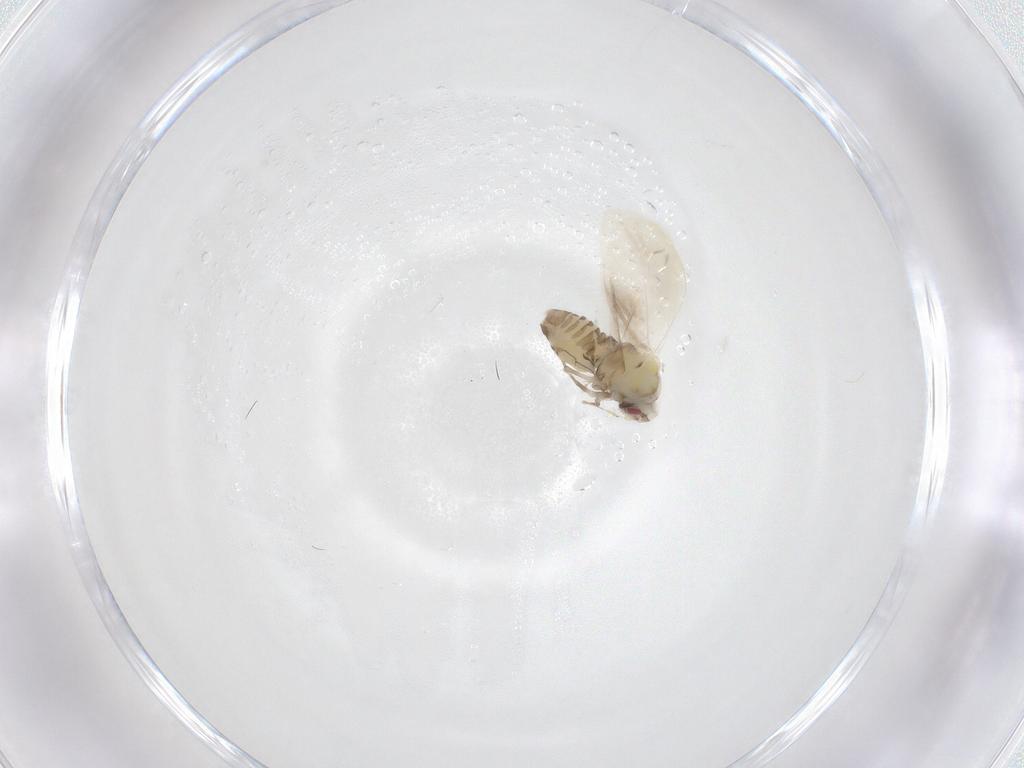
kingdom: Animalia
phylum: Arthropoda
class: Insecta
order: Hemiptera
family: Aleyrodidae
